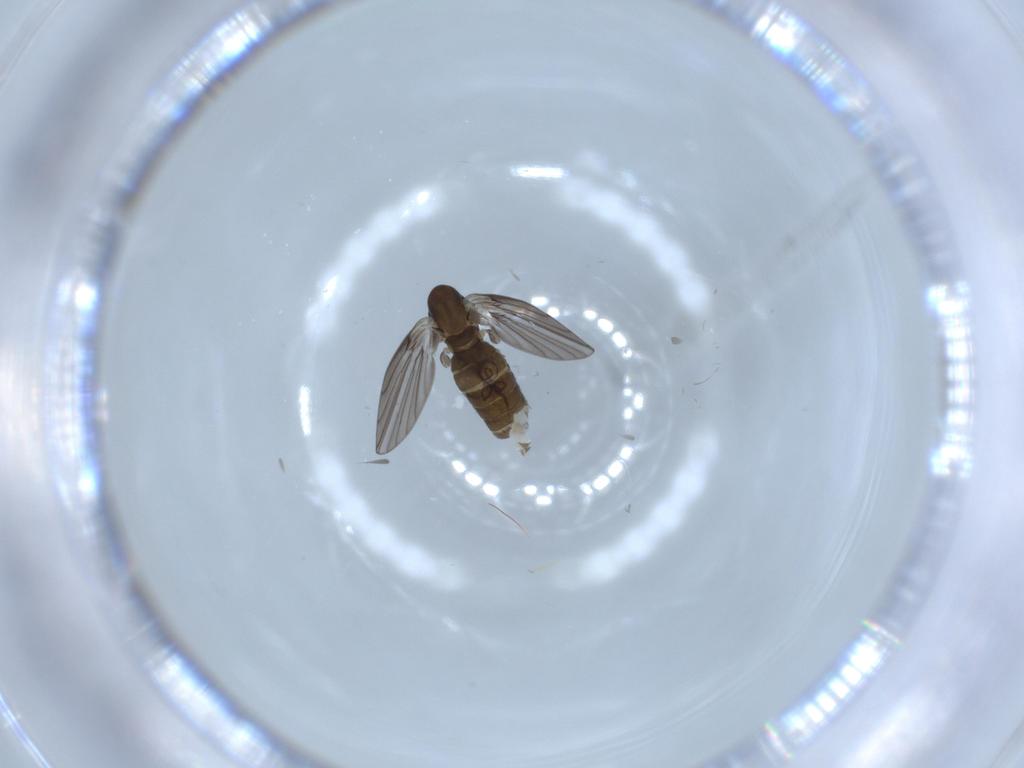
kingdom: Animalia
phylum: Arthropoda
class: Insecta
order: Diptera
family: Psychodidae
